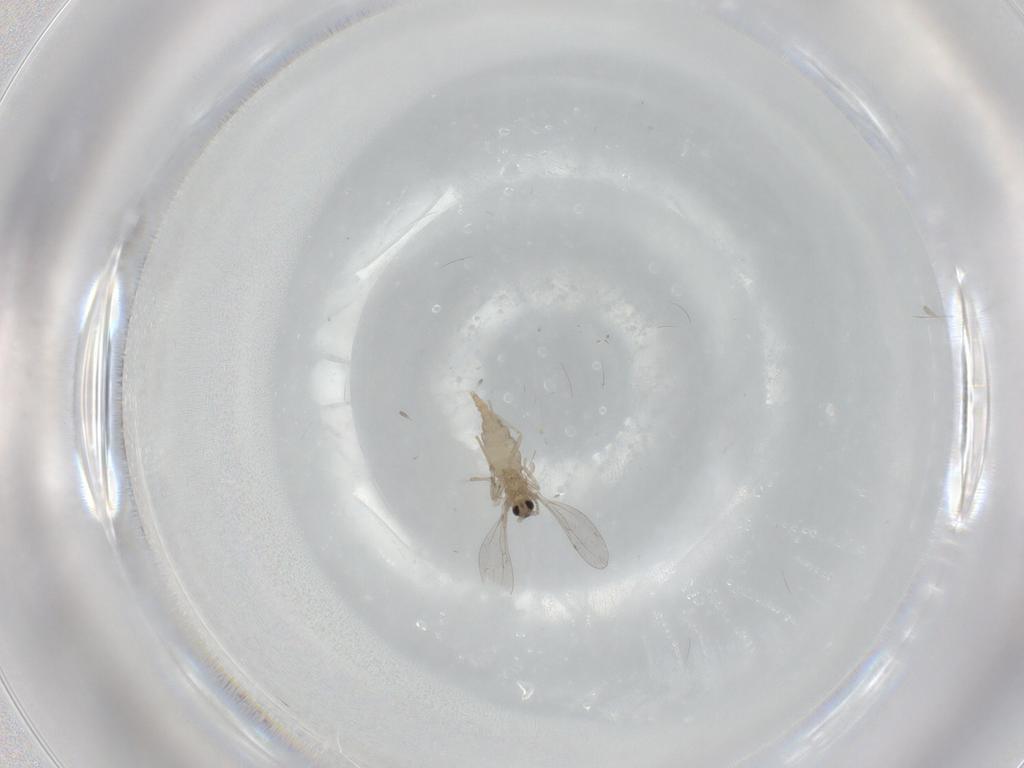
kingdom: Animalia
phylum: Arthropoda
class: Insecta
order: Diptera
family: Cecidomyiidae
